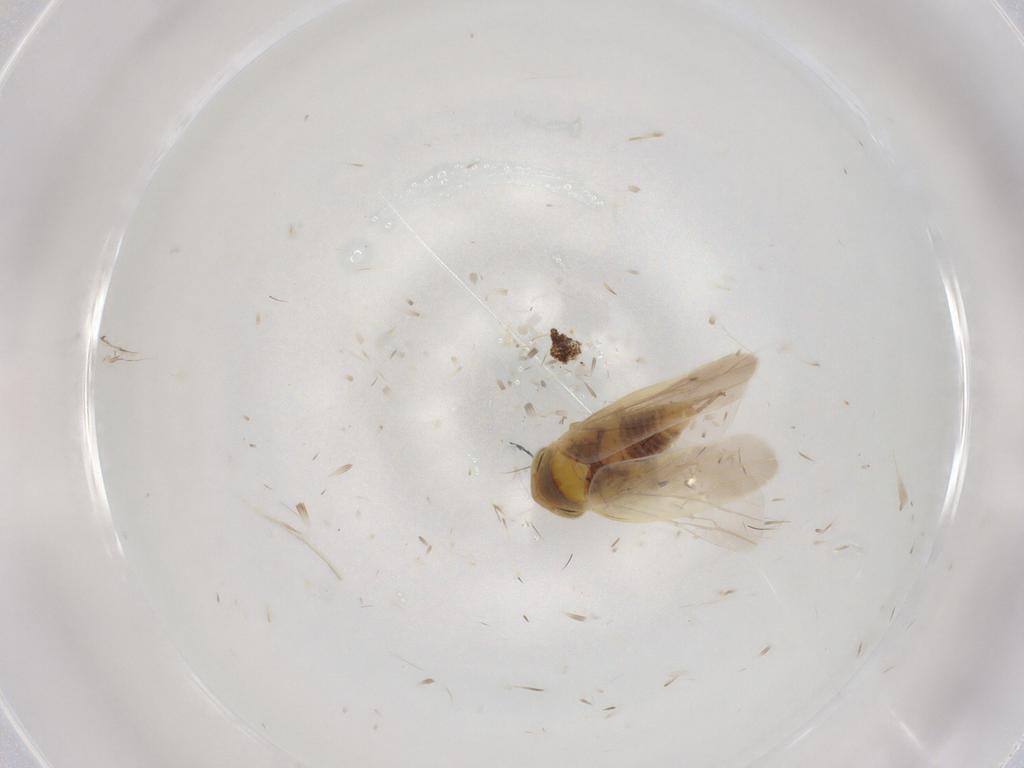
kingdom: Animalia
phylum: Arthropoda
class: Insecta
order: Hemiptera
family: Cicadellidae
